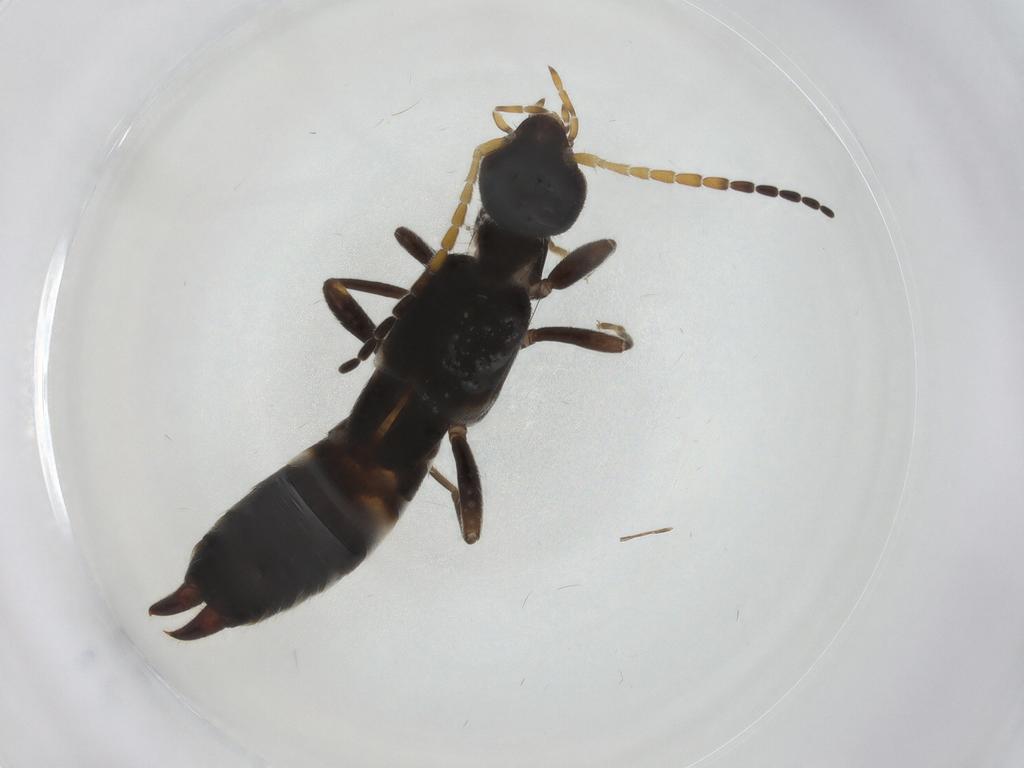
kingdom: Animalia
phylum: Arthropoda
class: Insecta
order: Dermaptera
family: Forficulidae
